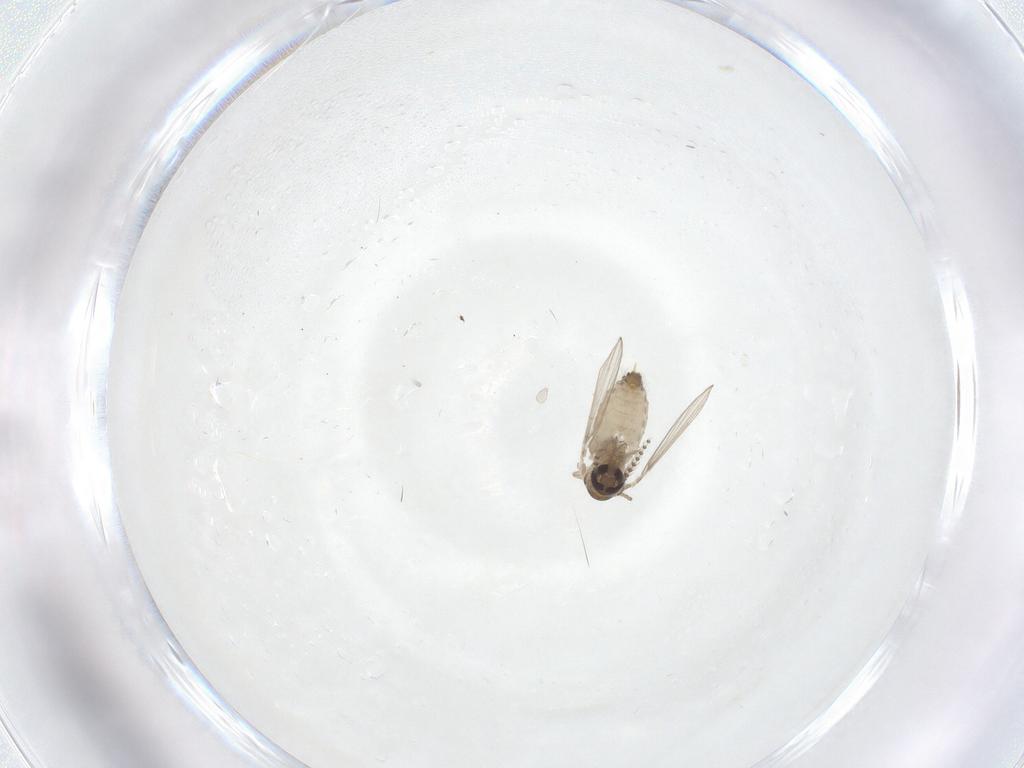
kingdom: Animalia
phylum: Arthropoda
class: Insecta
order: Diptera
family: Psychodidae
